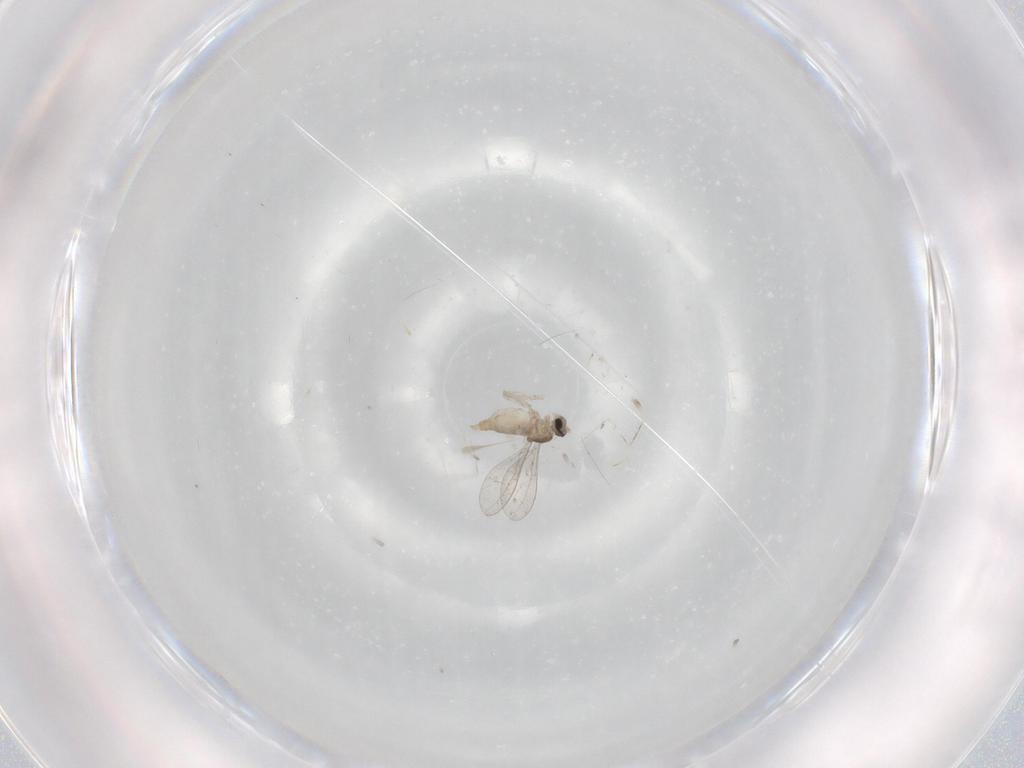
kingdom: Animalia
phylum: Arthropoda
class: Insecta
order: Diptera
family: Cecidomyiidae
